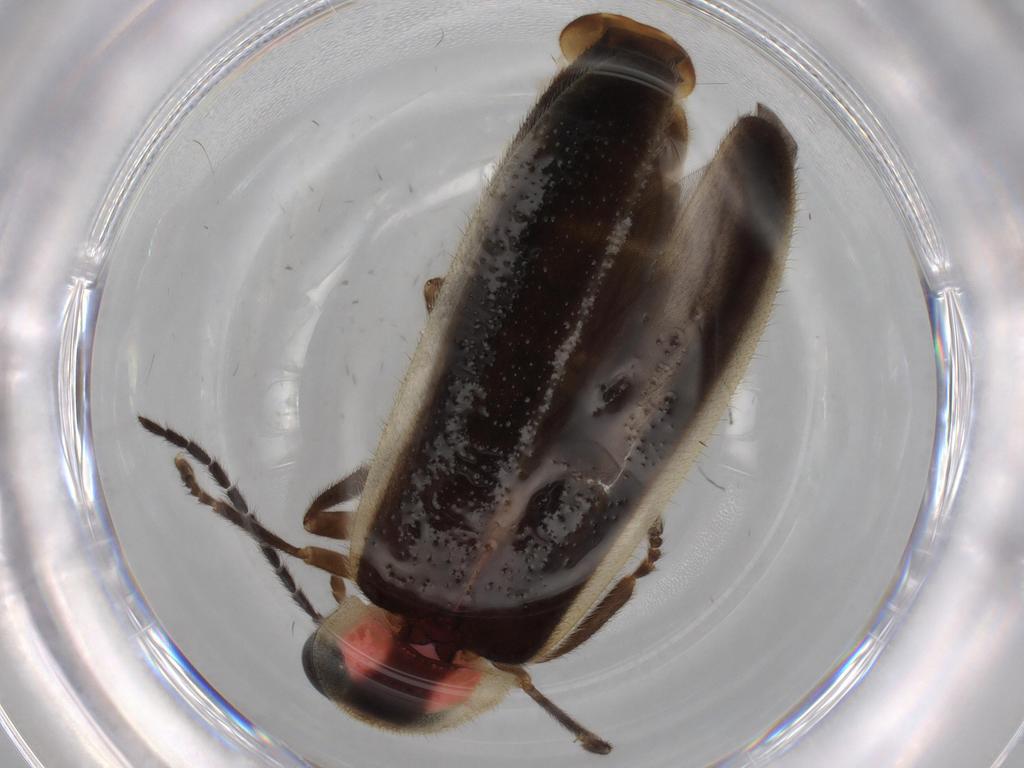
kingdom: Animalia
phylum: Arthropoda
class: Insecta
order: Coleoptera
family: Lampyridae
